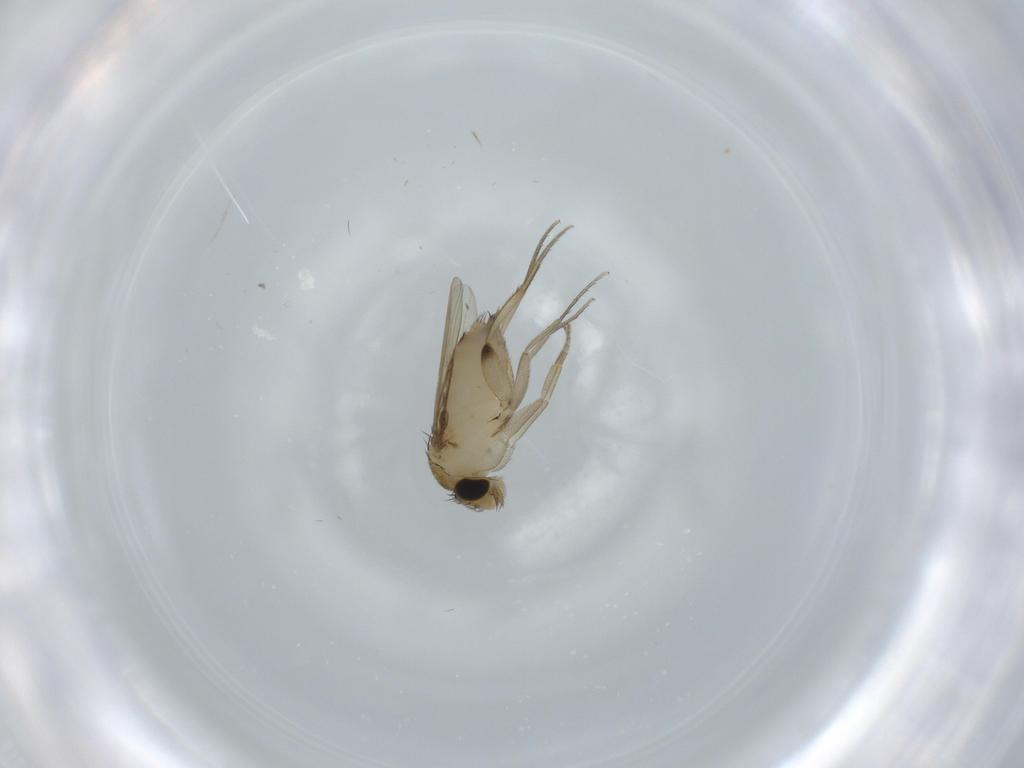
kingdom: Animalia
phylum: Arthropoda
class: Insecta
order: Diptera
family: Phoridae
